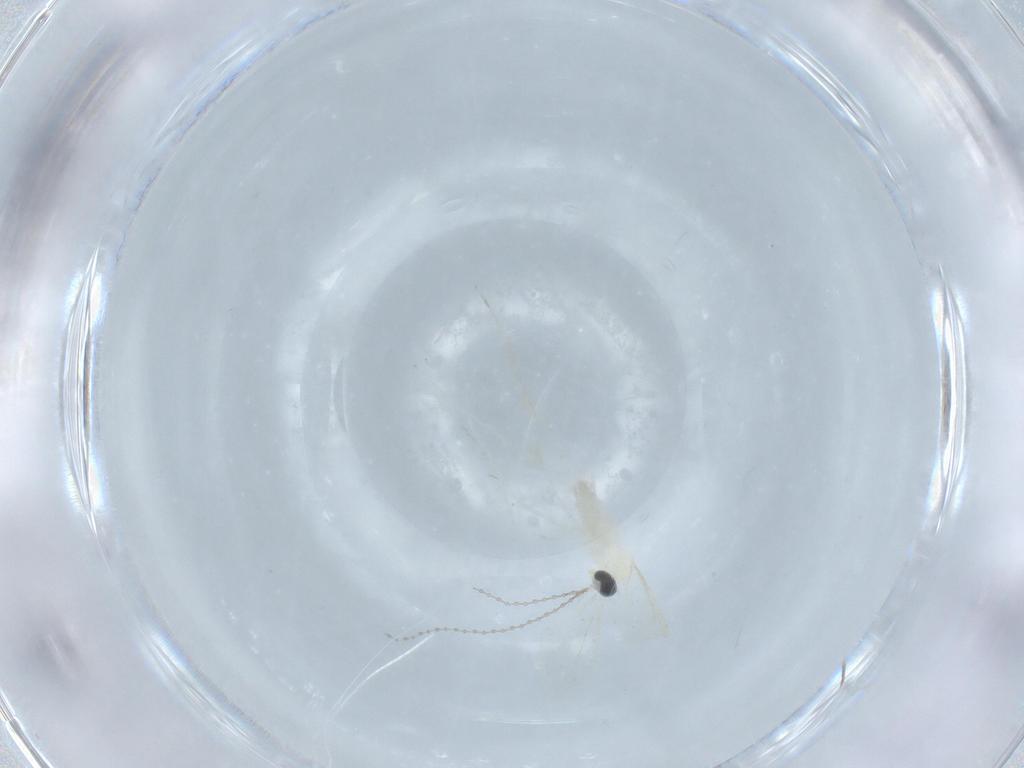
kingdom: Animalia
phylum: Arthropoda
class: Insecta
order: Diptera
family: Cecidomyiidae
